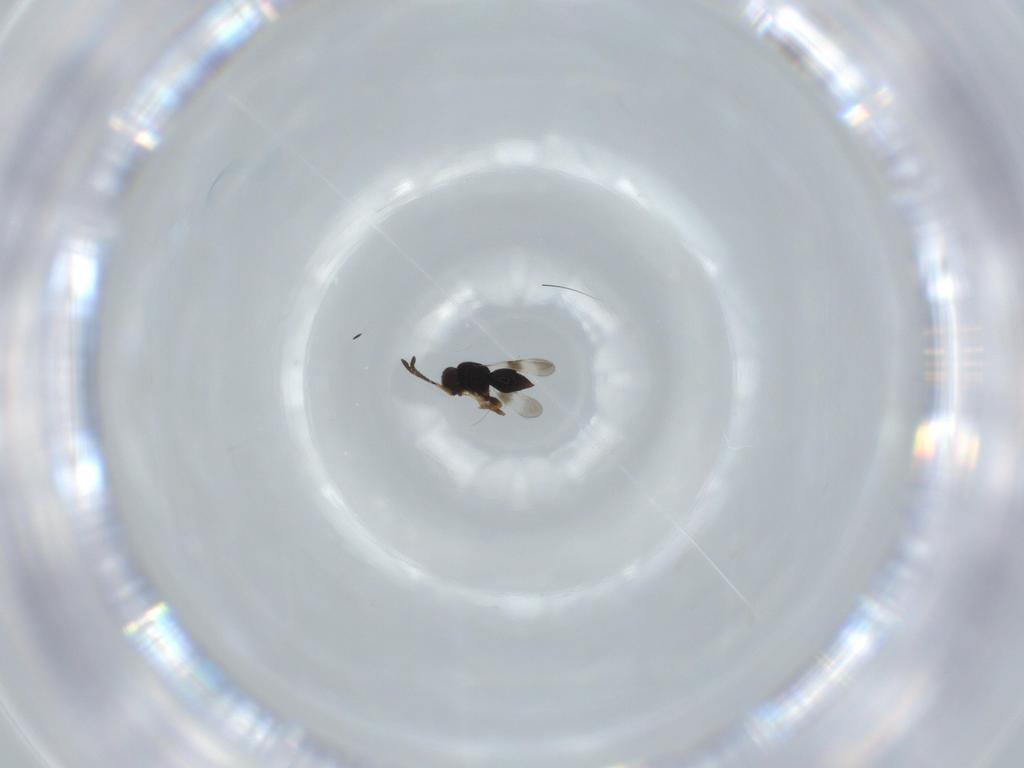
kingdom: Animalia
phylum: Arthropoda
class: Insecta
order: Hymenoptera
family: Ceraphronidae
